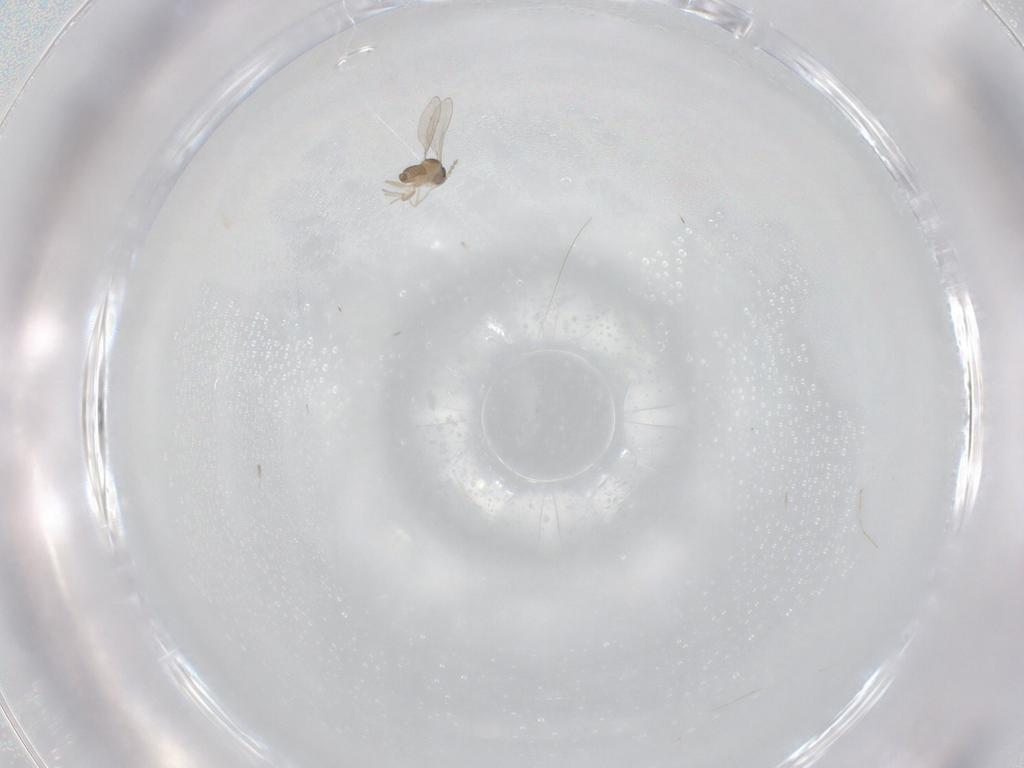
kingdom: Animalia
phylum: Arthropoda
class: Insecta
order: Diptera
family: Cecidomyiidae
